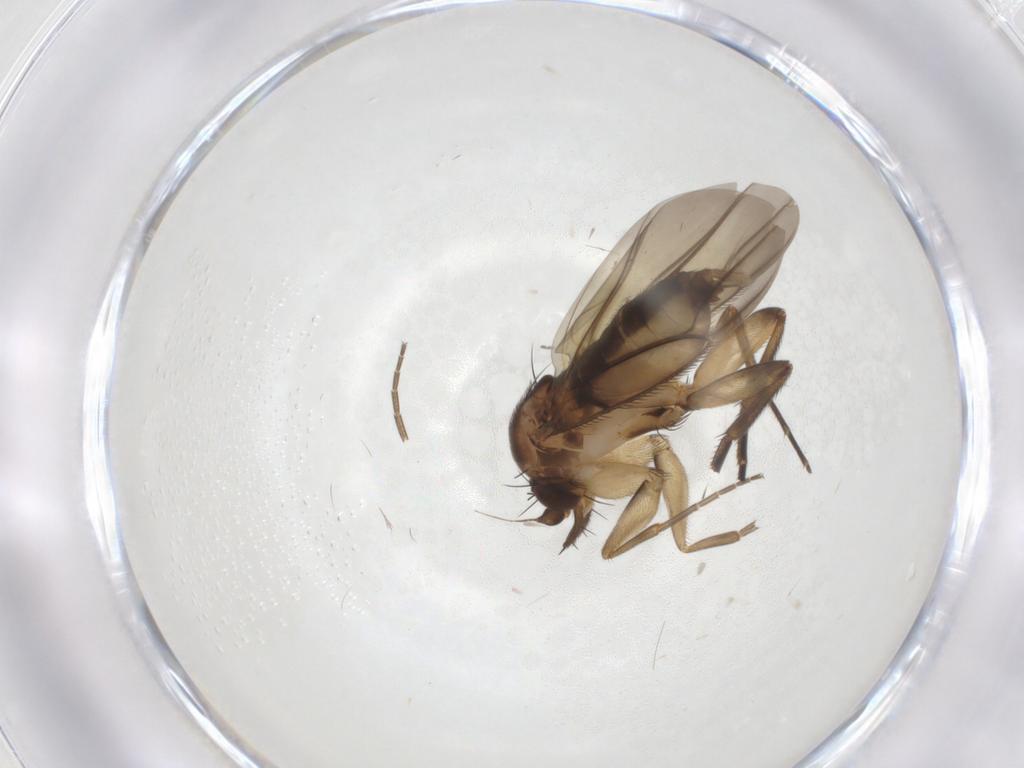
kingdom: Animalia
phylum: Arthropoda
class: Insecta
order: Diptera
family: Phoridae
